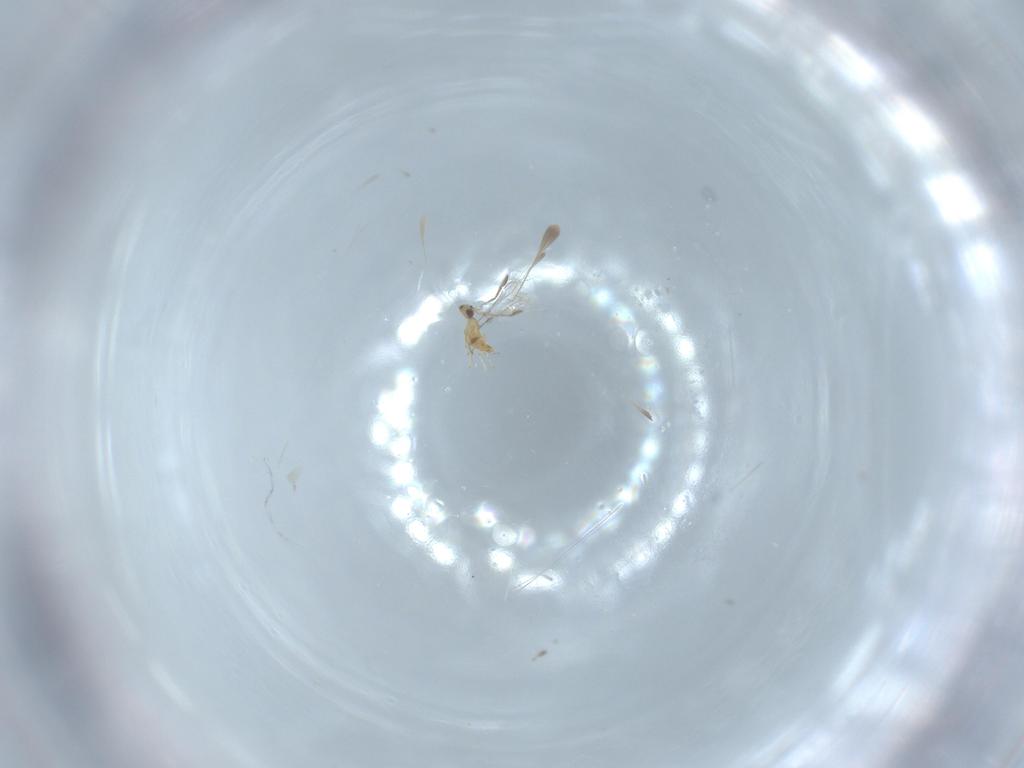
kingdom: Animalia
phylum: Arthropoda
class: Insecta
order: Hymenoptera
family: Mymaridae
